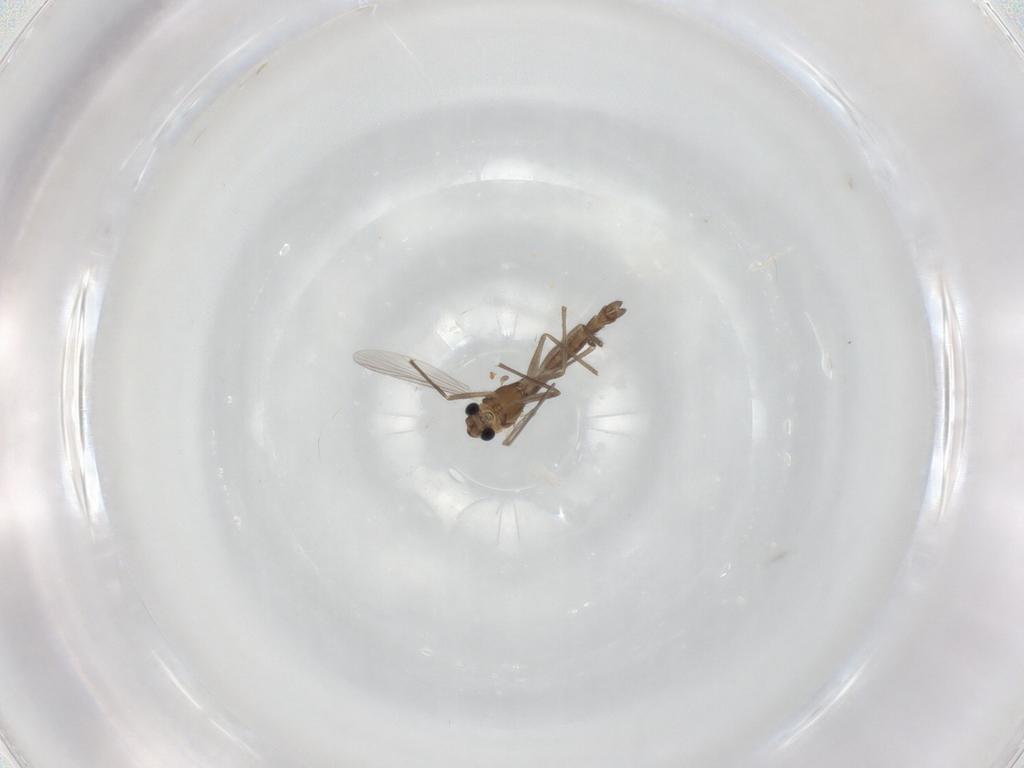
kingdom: Animalia
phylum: Arthropoda
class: Insecta
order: Diptera
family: Chironomidae
